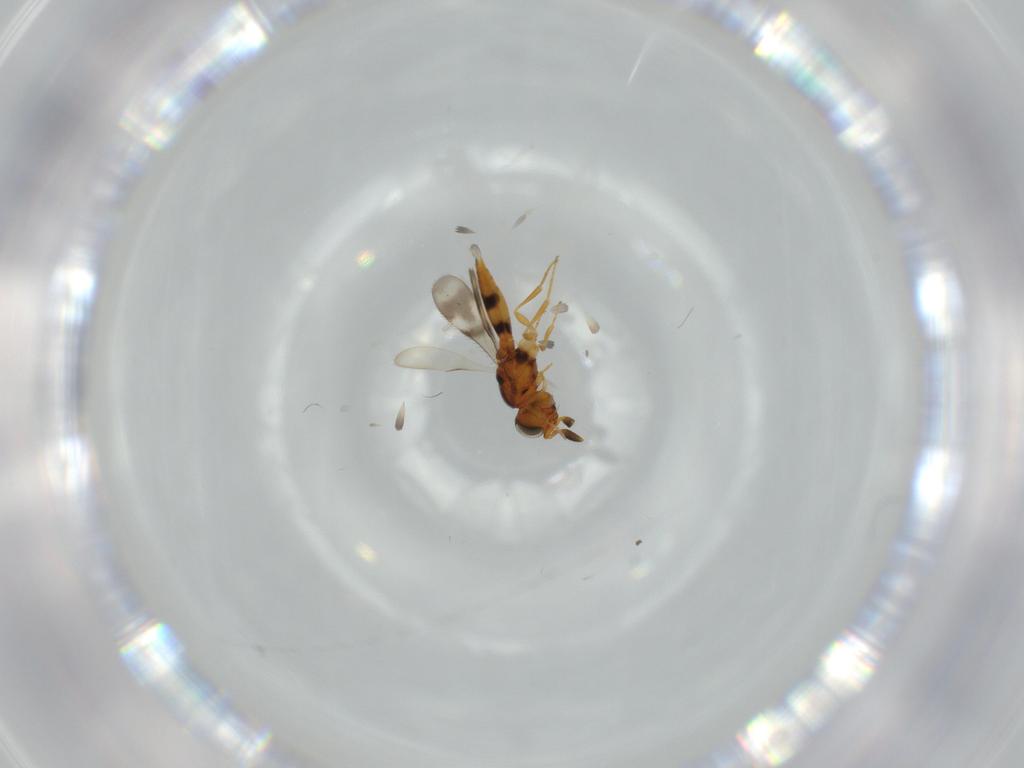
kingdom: Animalia
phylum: Arthropoda
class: Insecta
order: Hymenoptera
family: Scelionidae
